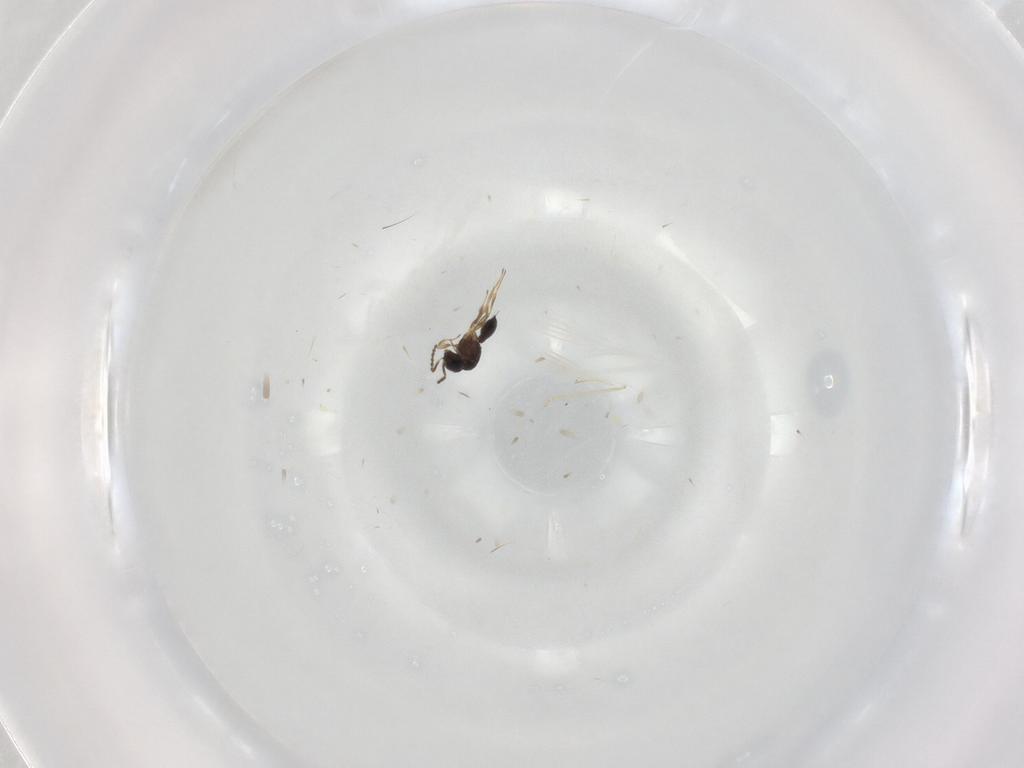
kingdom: Animalia
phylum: Arthropoda
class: Insecta
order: Hymenoptera
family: Scelionidae
